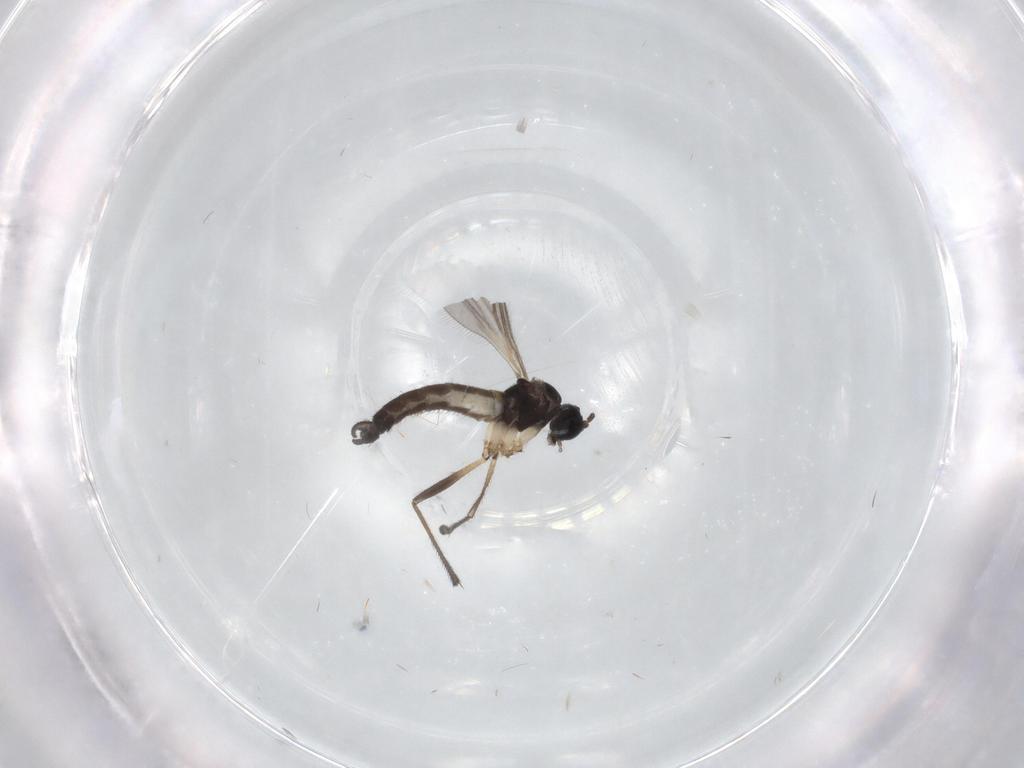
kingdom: Animalia
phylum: Arthropoda
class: Insecta
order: Diptera
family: Sciaridae
